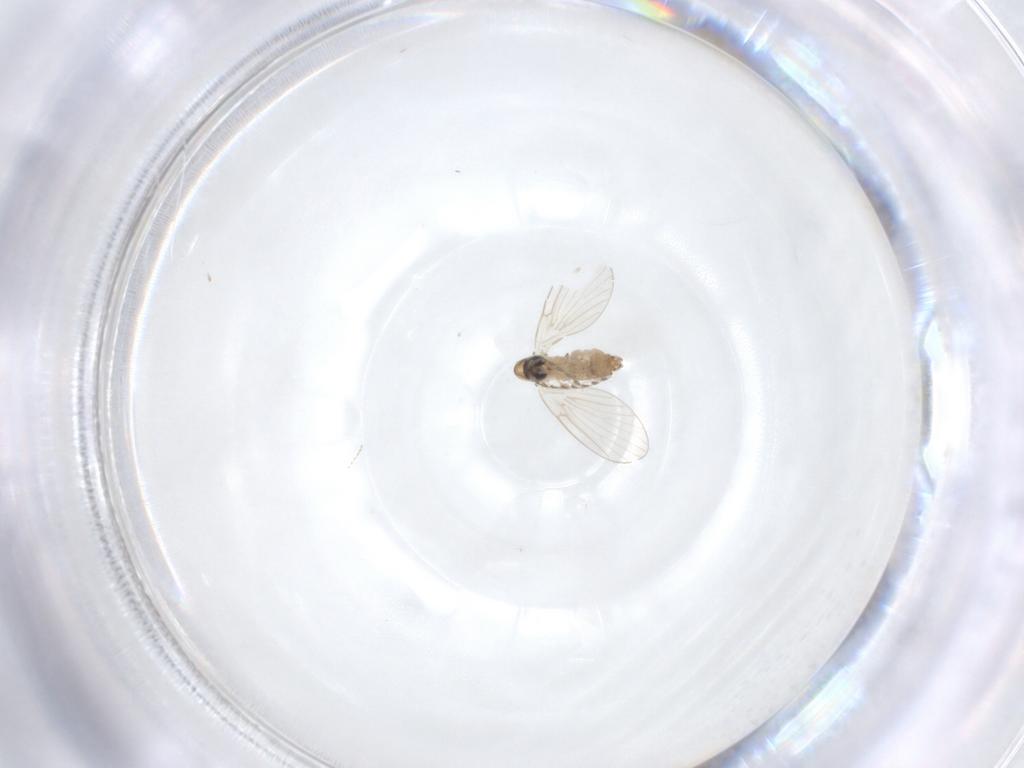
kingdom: Animalia
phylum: Arthropoda
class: Insecta
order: Diptera
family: Psychodidae
